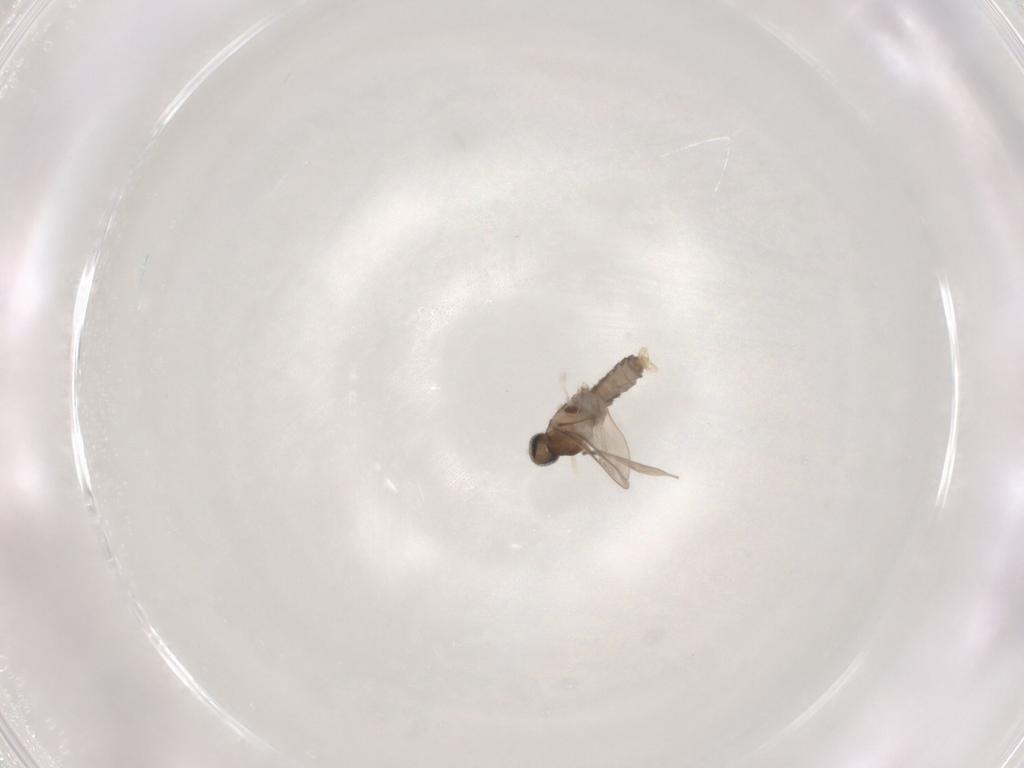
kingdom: Animalia
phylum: Arthropoda
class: Insecta
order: Diptera
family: Cecidomyiidae
